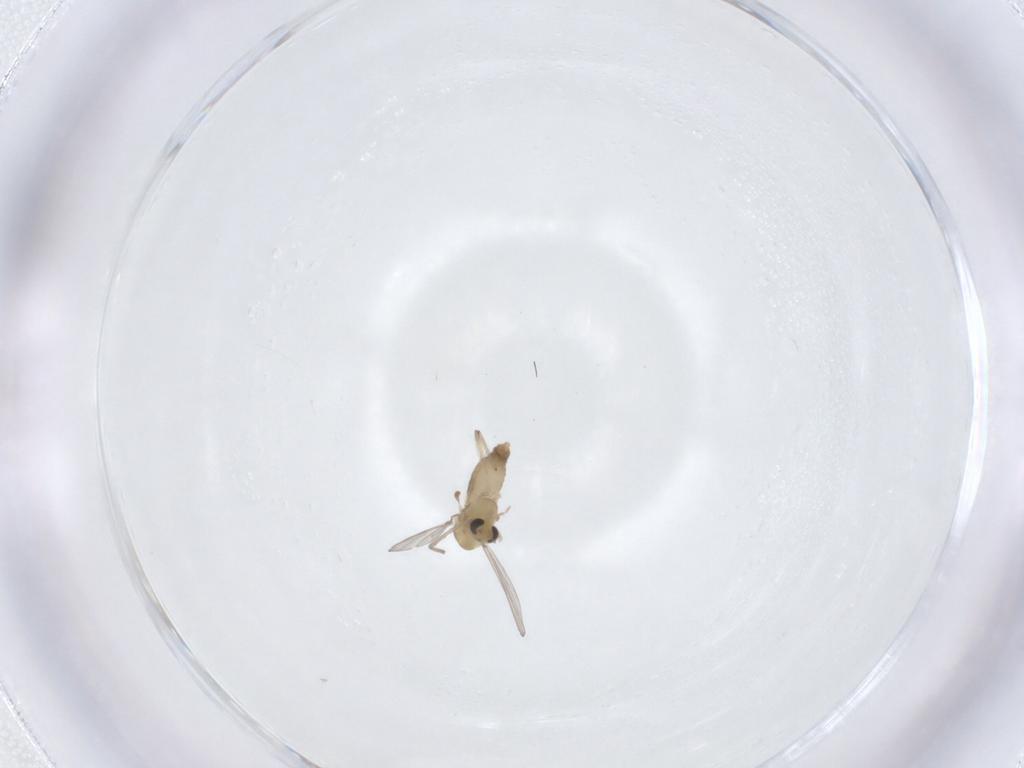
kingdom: Animalia
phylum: Arthropoda
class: Insecta
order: Diptera
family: Chironomidae
